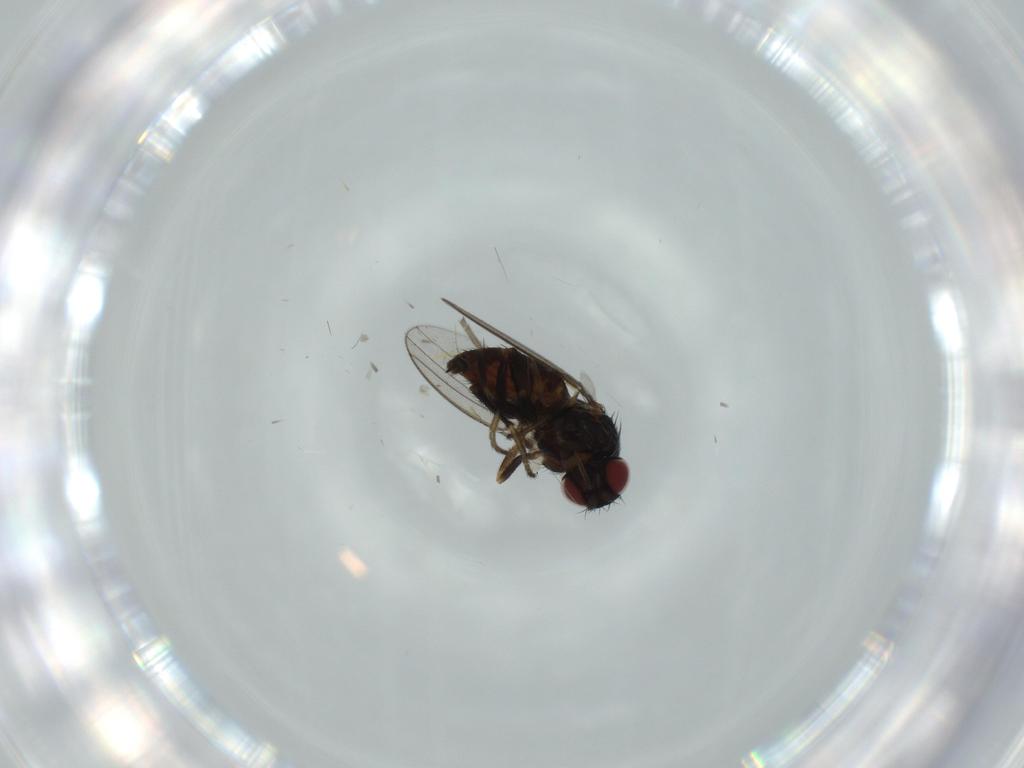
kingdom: Animalia
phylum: Arthropoda
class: Insecta
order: Diptera
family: Milichiidae
